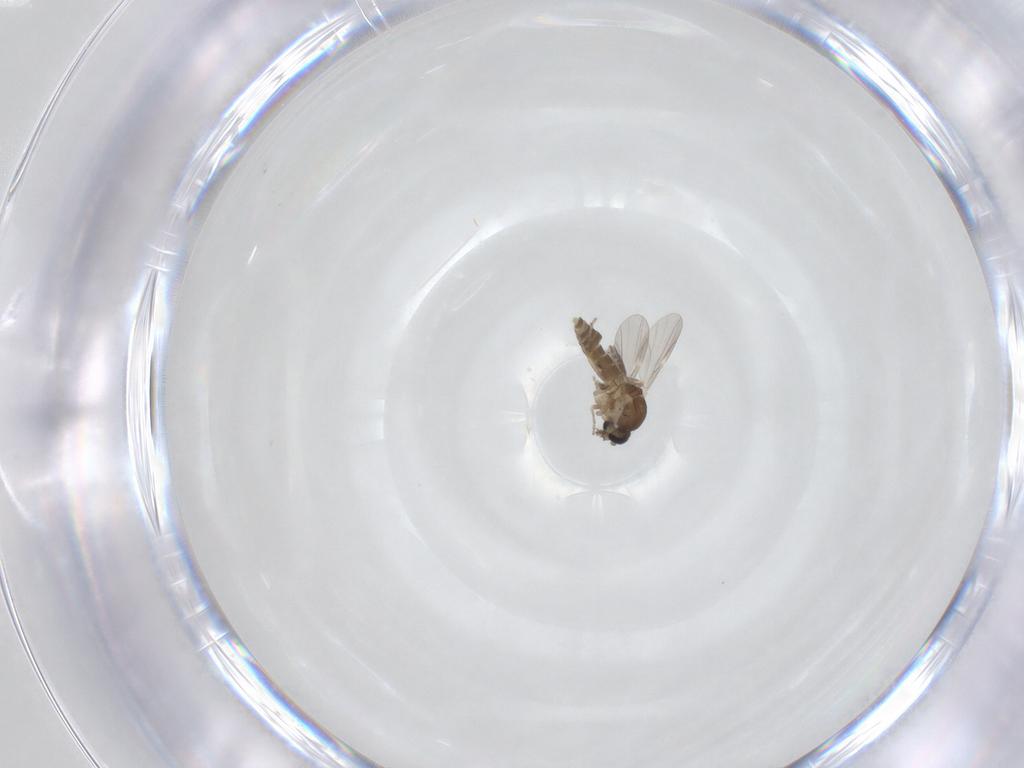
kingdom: Animalia
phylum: Arthropoda
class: Insecta
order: Diptera
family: Ceratopogonidae
